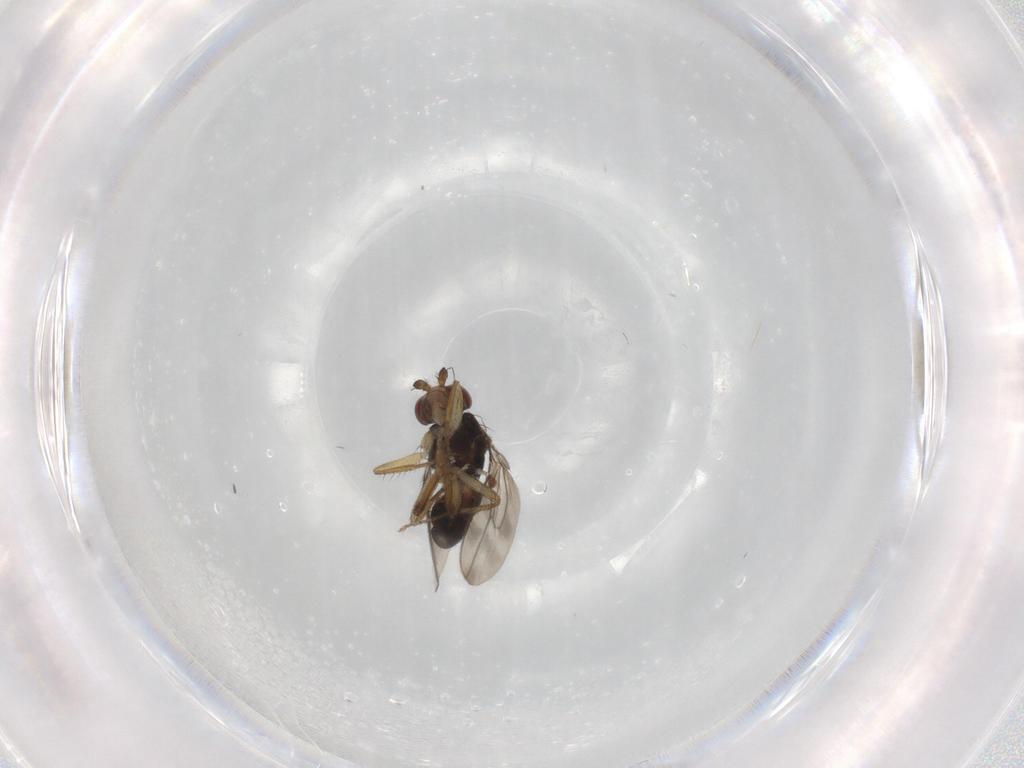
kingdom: Animalia
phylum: Arthropoda
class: Insecta
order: Diptera
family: Sphaeroceridae
